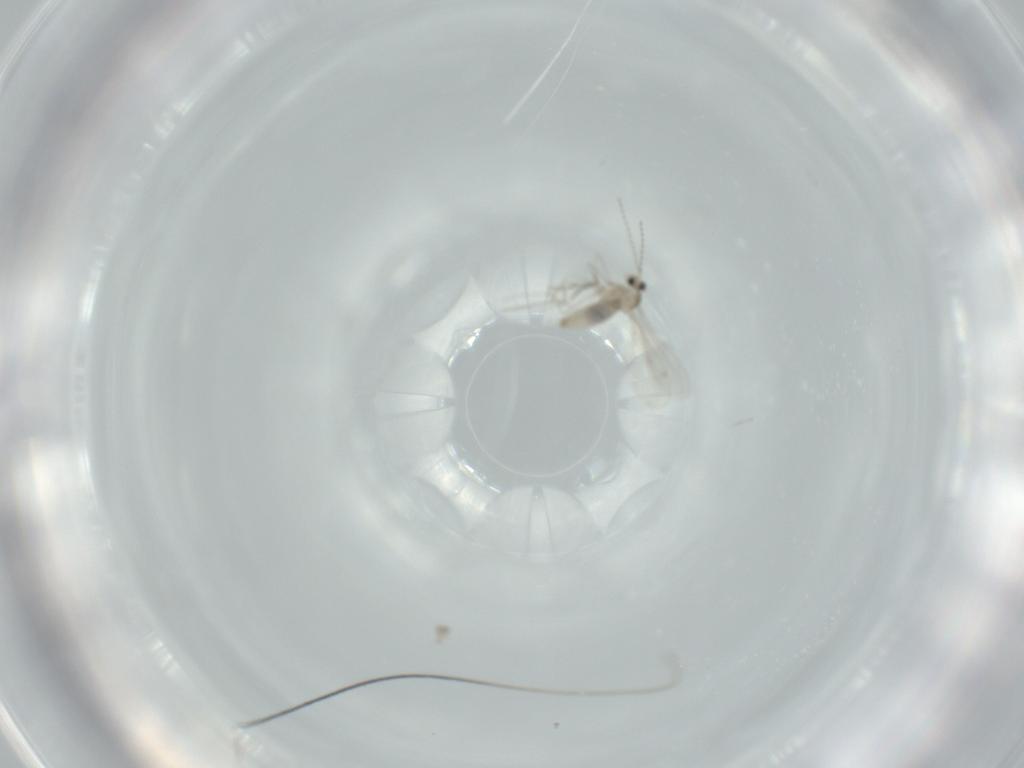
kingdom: Animalia
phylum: Arthropoda
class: Insecta
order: Diptera
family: Cecidomyiidae
